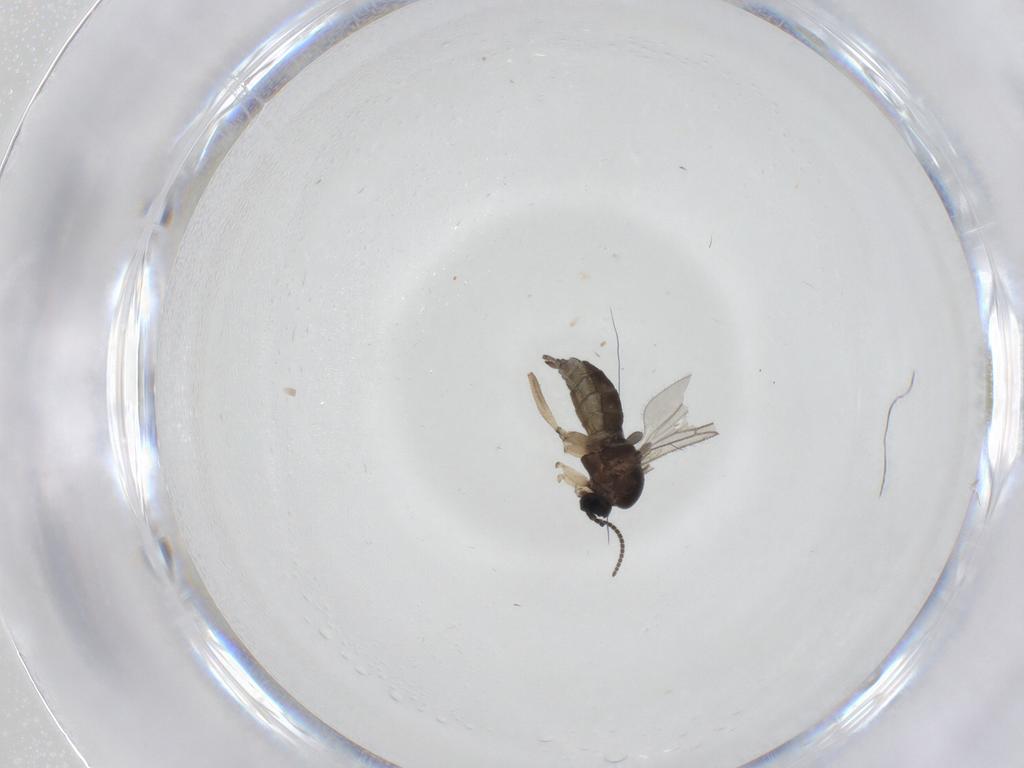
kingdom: Animalia
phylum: Arthropoda
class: Insecta
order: Diptera
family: Sciaridae
